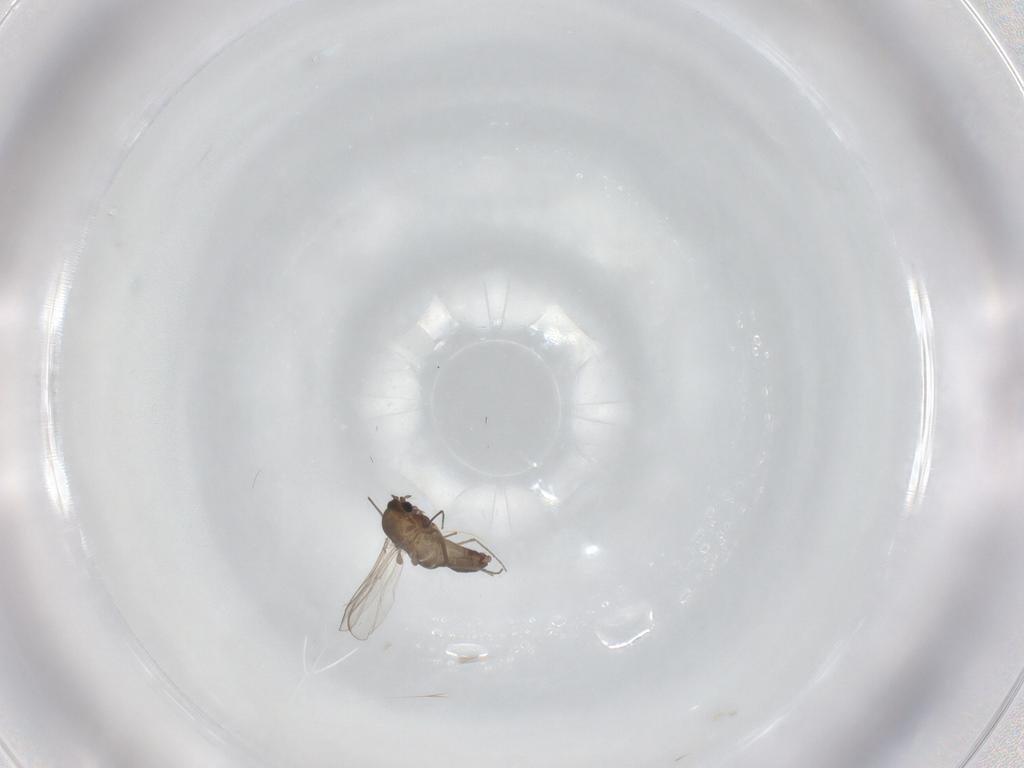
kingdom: Animalia
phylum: Arthropoda
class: Insecta
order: Diptera
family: Chironomidae
